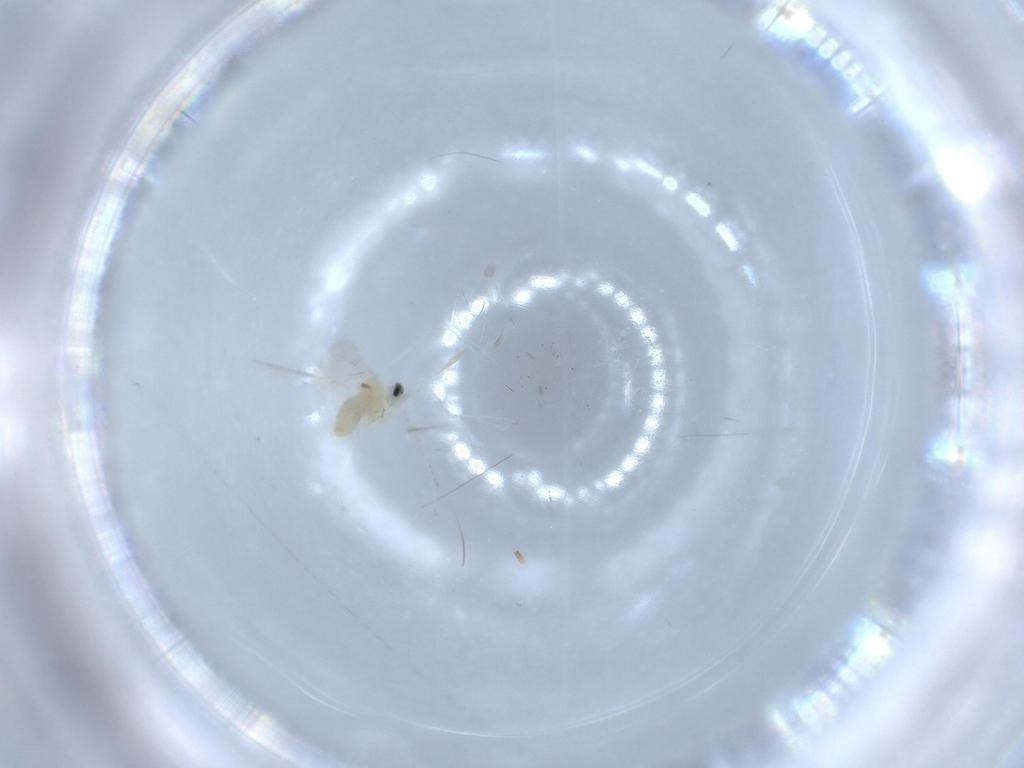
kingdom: Animalia
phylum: Arthropoda
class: Insecta
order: Diptera
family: Cecidomyiidae
